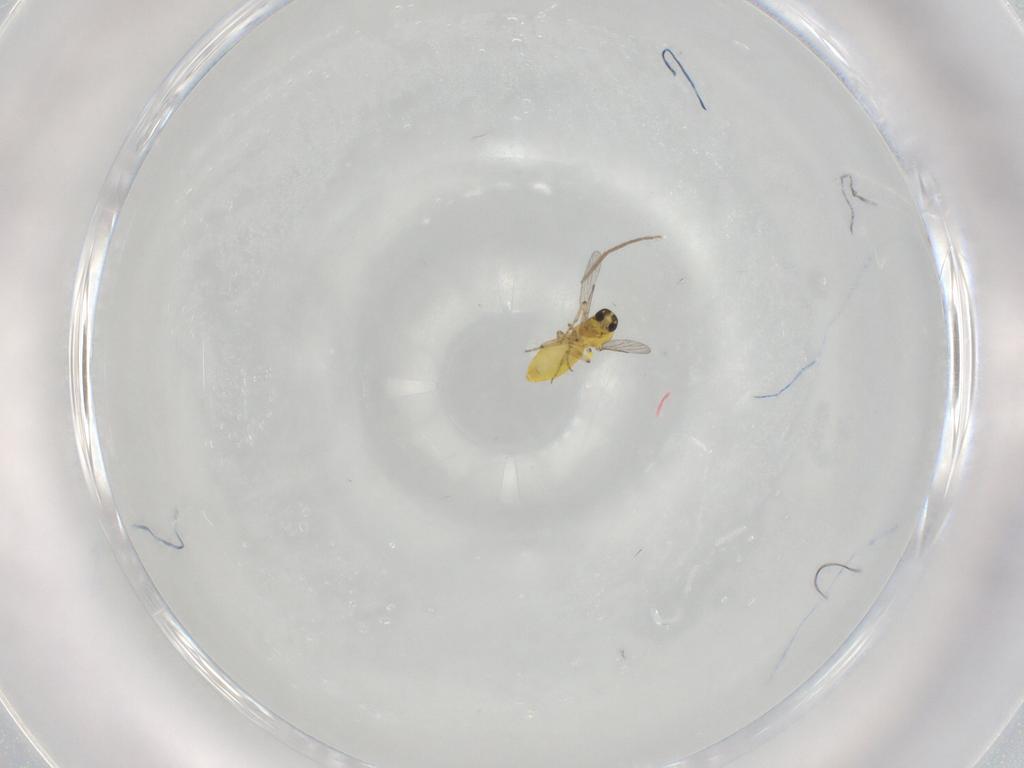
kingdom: Animalia
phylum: Arthropoda
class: Insecta
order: Diptera
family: Chironomidae
